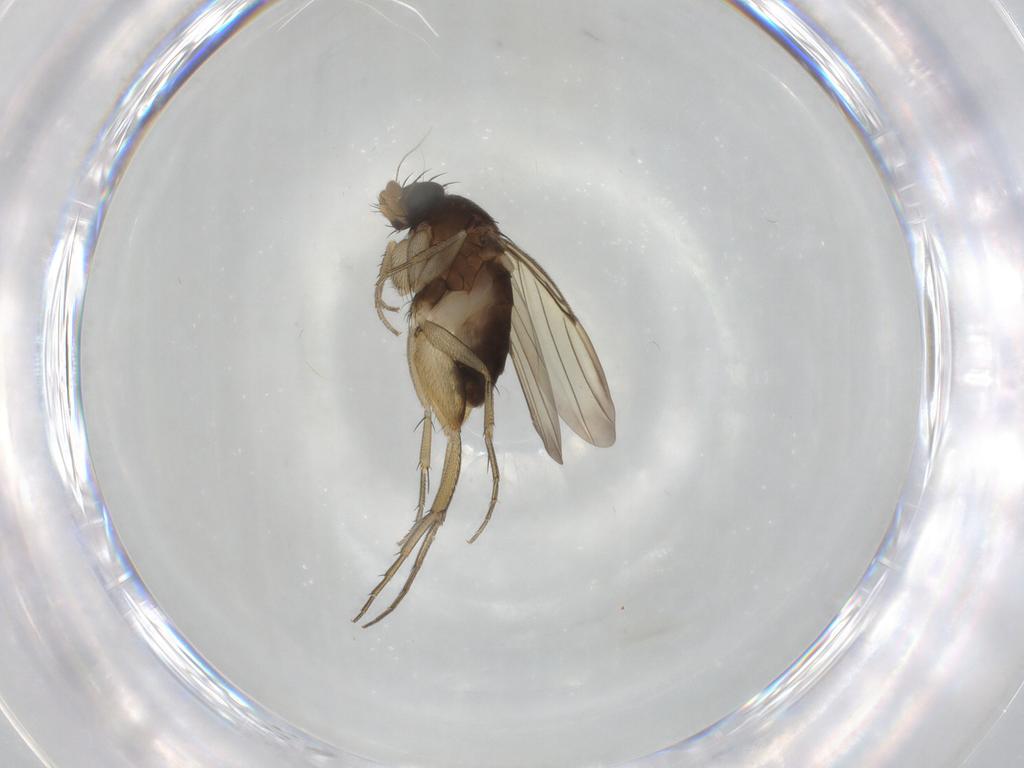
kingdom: Animalia
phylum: Arthropoda
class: Insecta
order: Diptera
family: Phoridae
